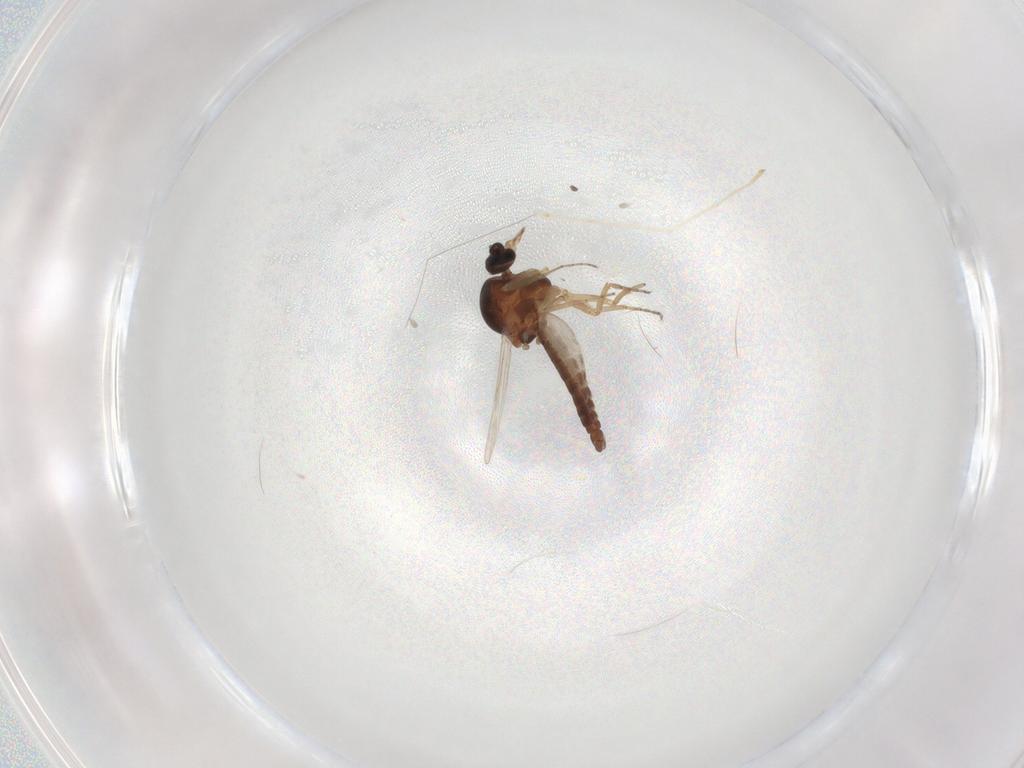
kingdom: Animalia
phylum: Arthropoda
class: Insecta
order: Diptera
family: Ceratopogonidae
